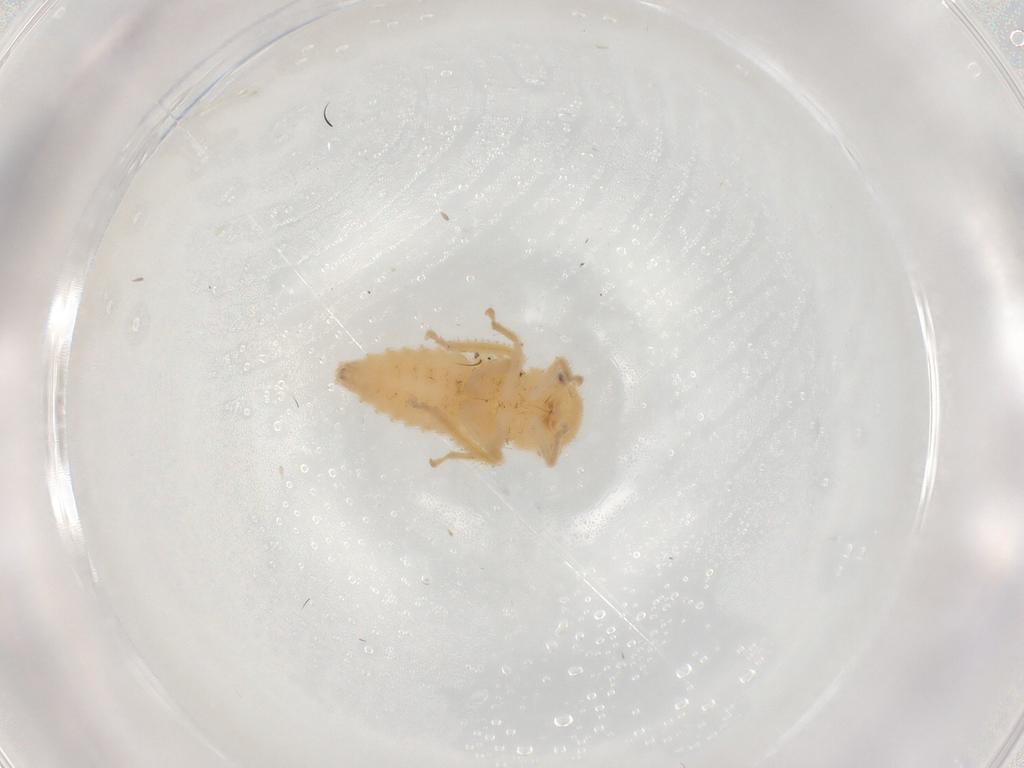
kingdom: Animalia
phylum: Arthropoda
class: Insecta
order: Hemiptera
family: Cicadellidae
